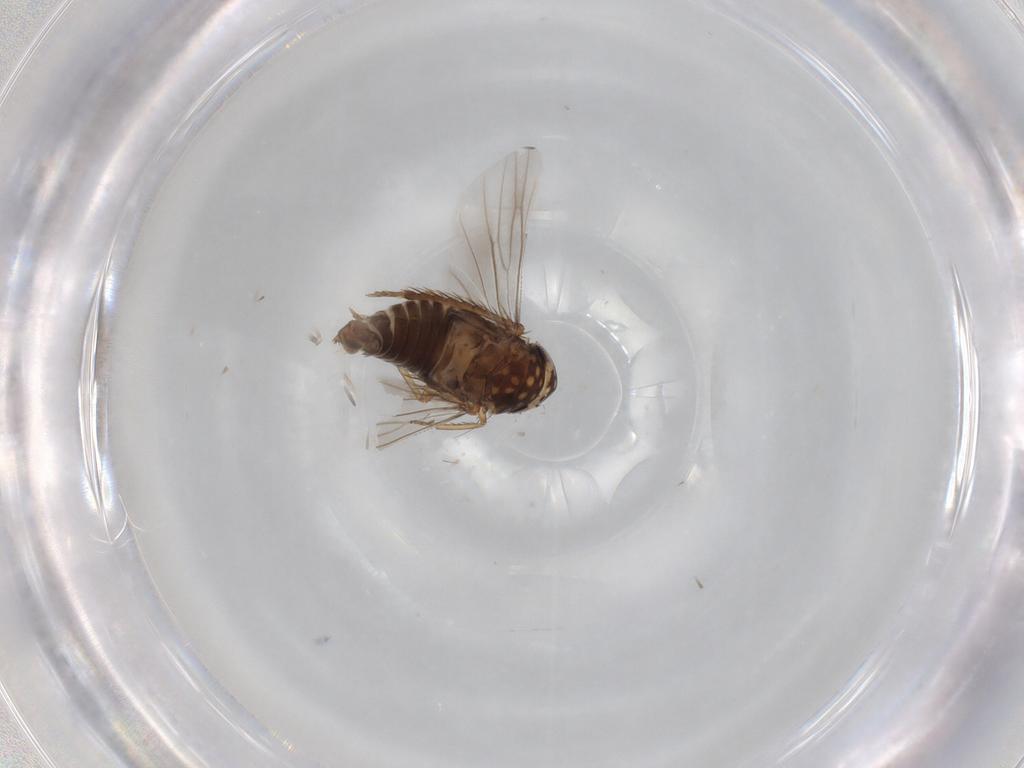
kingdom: Animalia
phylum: Arthropoda
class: Insecta
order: Hemiptera
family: Cicadellidae
